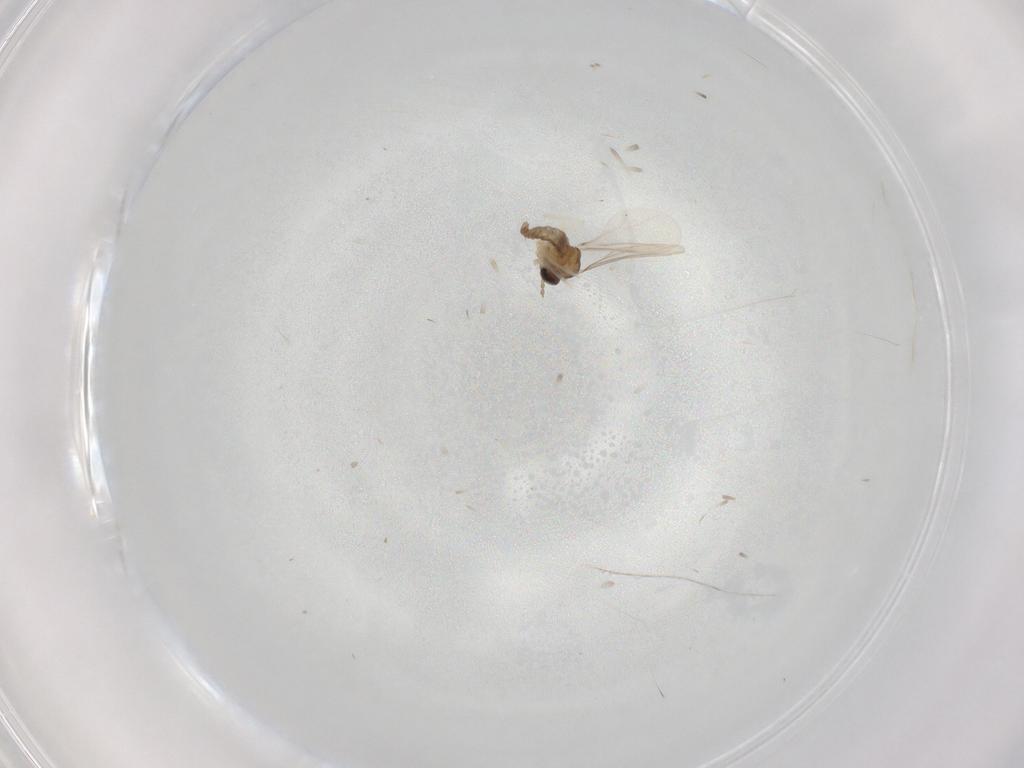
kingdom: Animalia
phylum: Arthropoda
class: Insecta
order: Diptera
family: Cecidomyiidae
